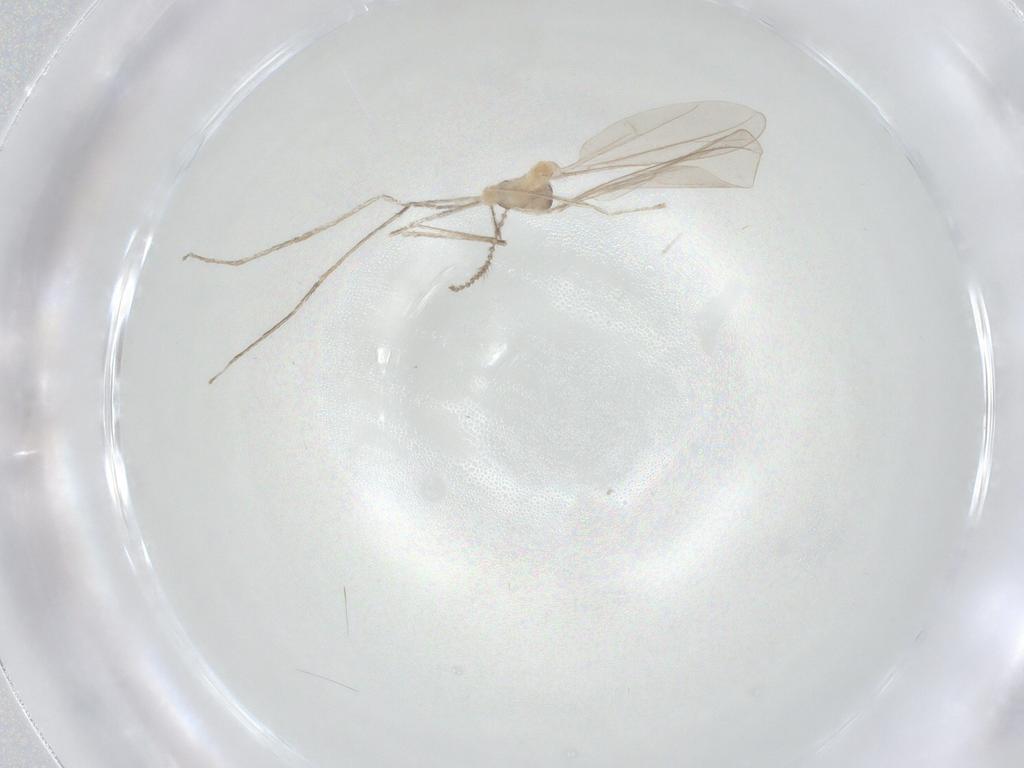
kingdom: Animalia
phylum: Arthropoda
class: Insecta
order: Diptera
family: Cecidomyiidae
